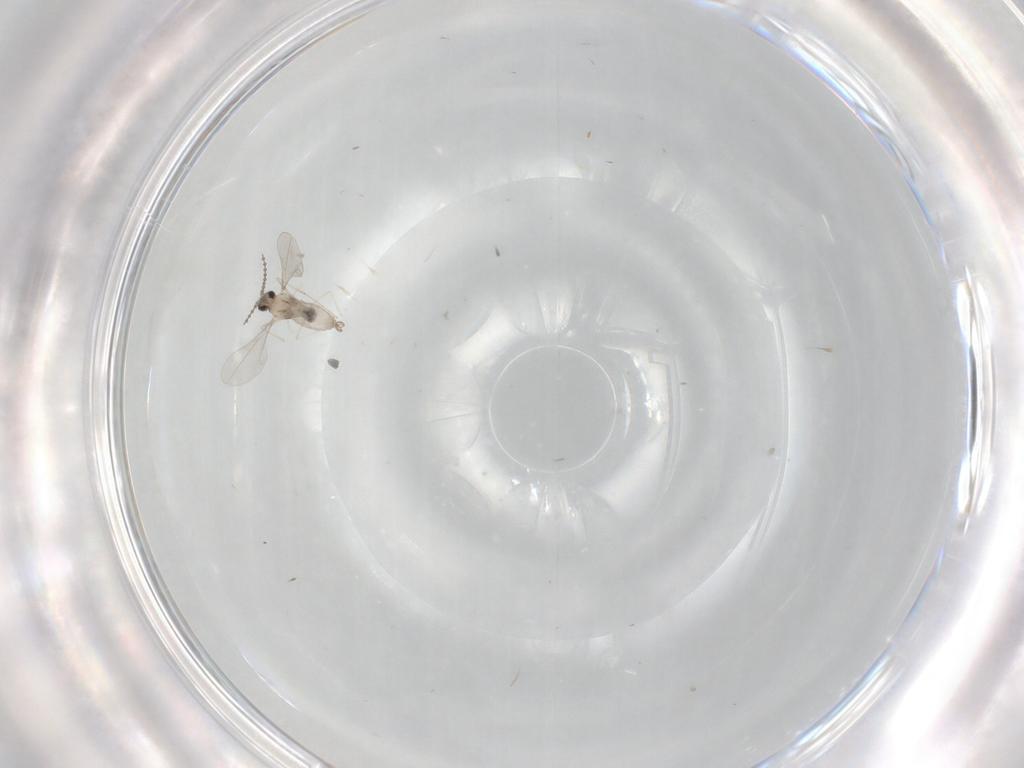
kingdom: Animalia
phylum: Arthropoda
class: Insecta
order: Diptera
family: Cecidomyiidae
